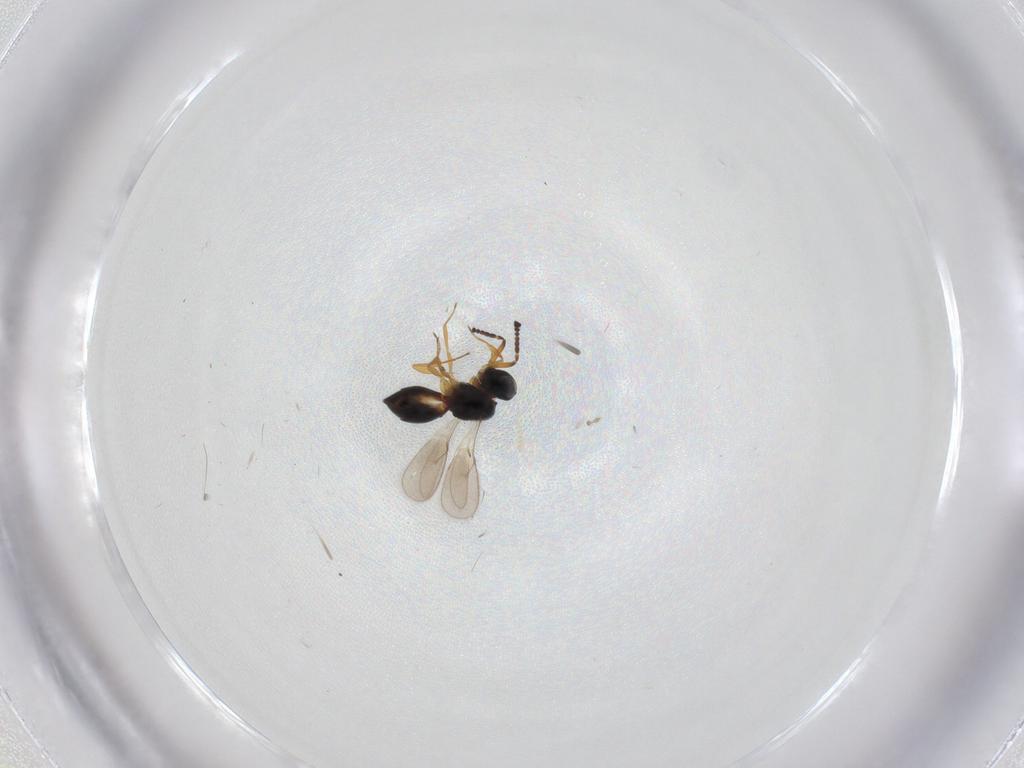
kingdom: Animalia
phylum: Arthropoda
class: Insecta
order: Hymenoptera
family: Scelionidae
